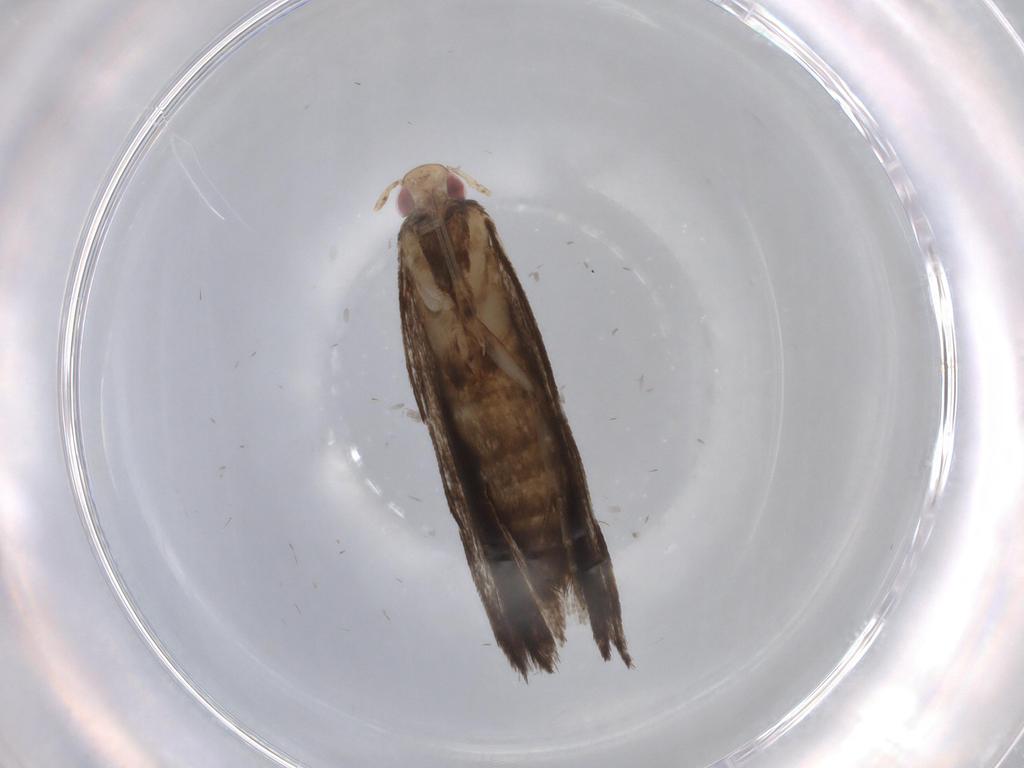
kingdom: Animalia
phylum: Arthropoda
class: Insecta
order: Lepidoptera
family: Gelechiidae
